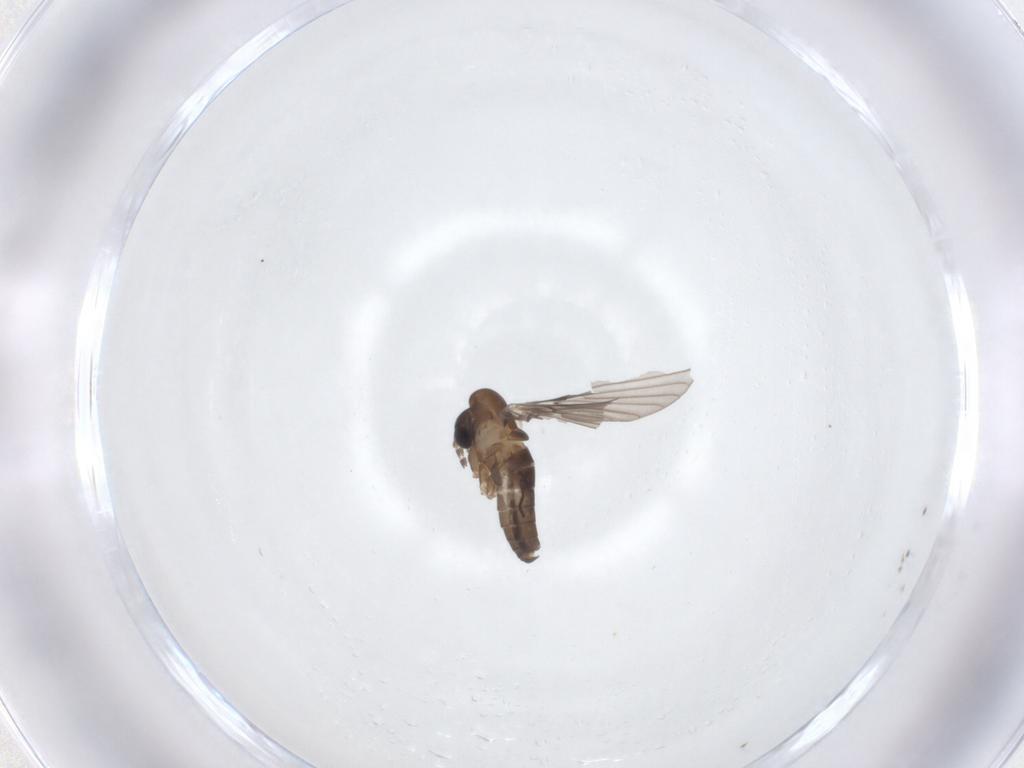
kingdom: Animalia
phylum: Arthropoda
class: Insecta
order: Diptera
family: Psychodidae
